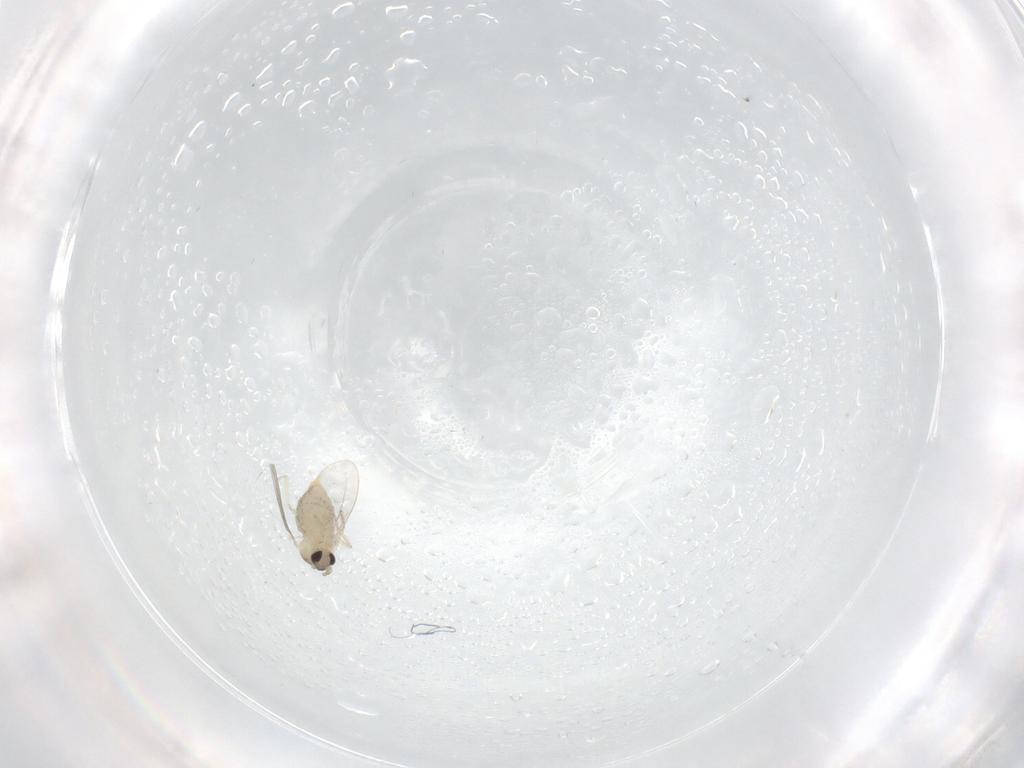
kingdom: Animalia
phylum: Arthropoda
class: Insecta
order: Diptera
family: Cecidomyiidae
